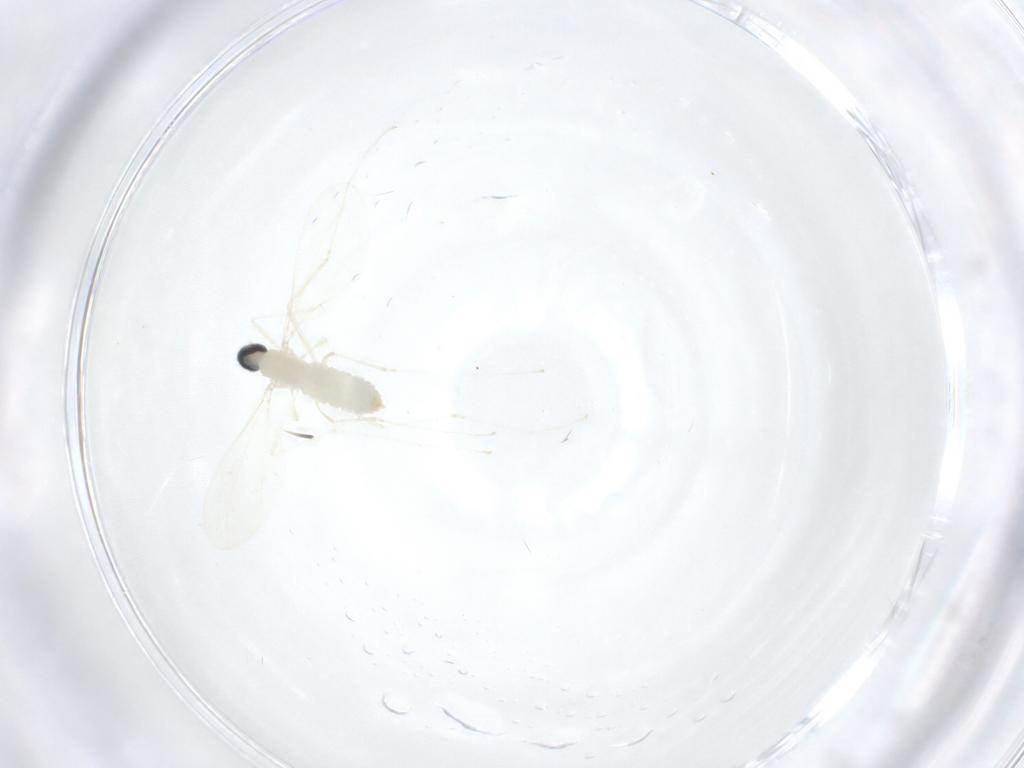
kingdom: Animalia
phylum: Arthropoda
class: Insecta
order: Diptera
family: Cecidomyiidae
